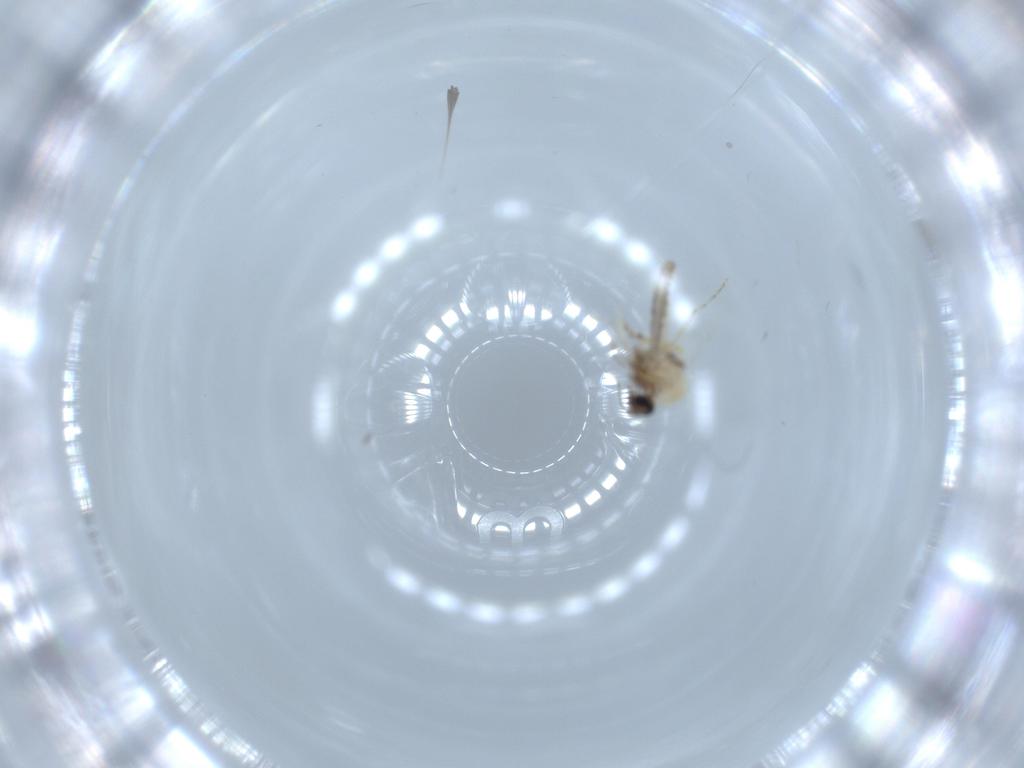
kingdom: Animalia
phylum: Arthropoda
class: Insecta
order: Diptera
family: Ceratopogonidae
